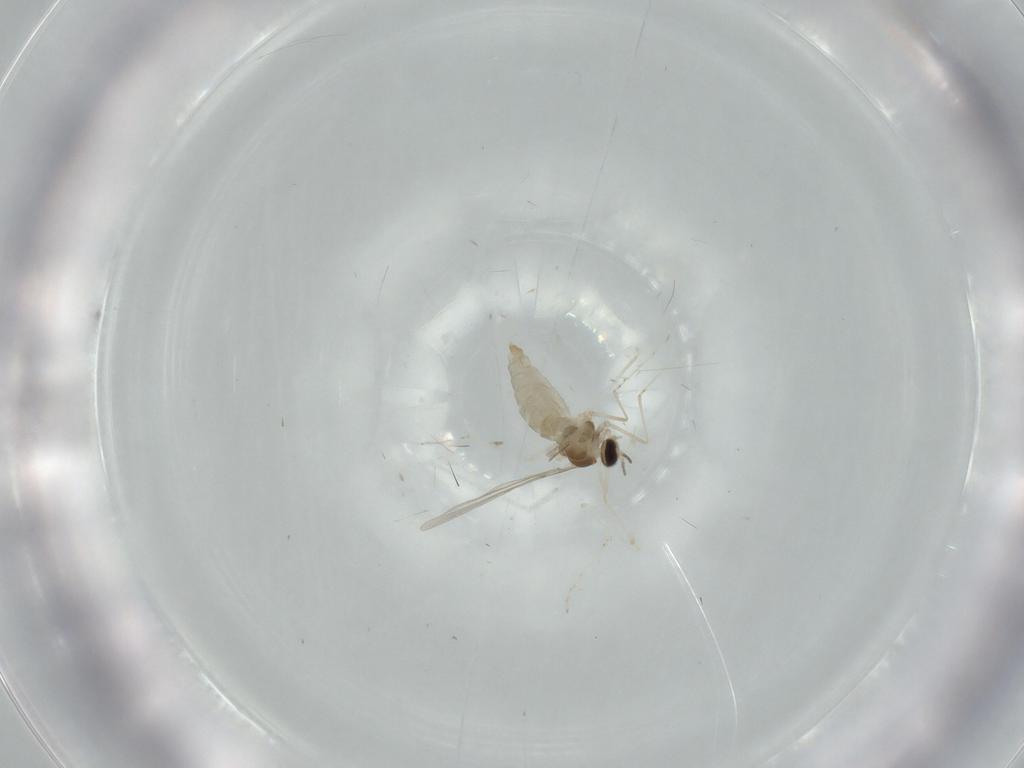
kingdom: Animalia
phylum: Arthropoda
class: Insecta
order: Diptera
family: Cecidomyiidae
